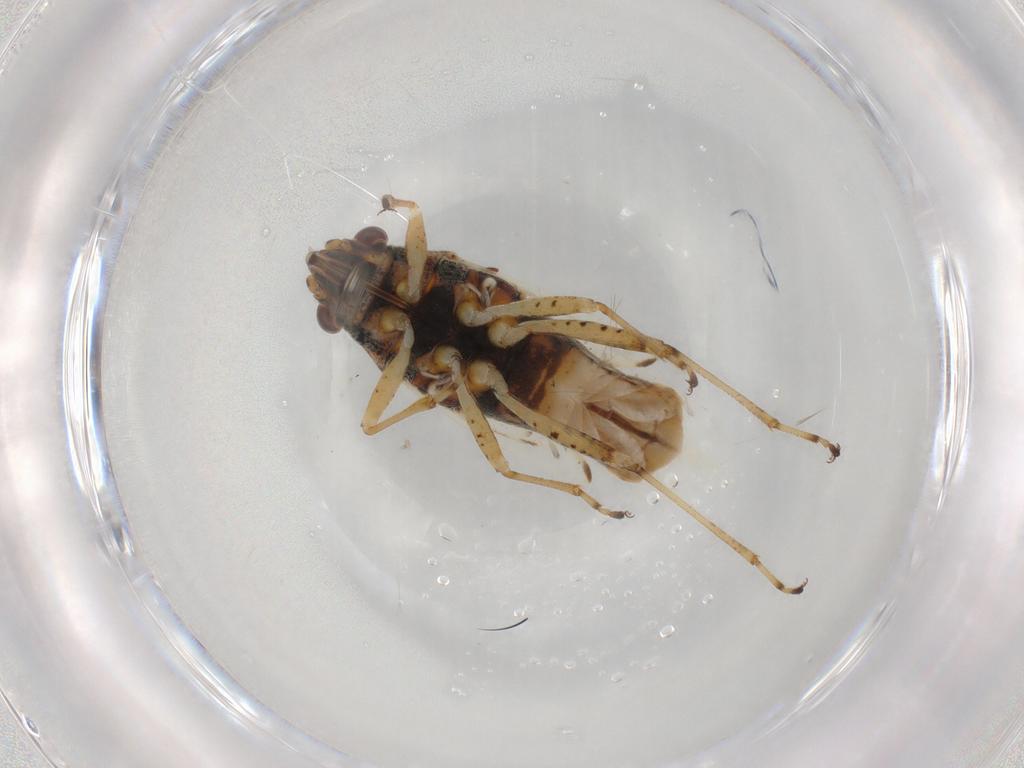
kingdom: Animalia
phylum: Arthropoda
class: Insecta
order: Hemiptera
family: Lygaeidae
